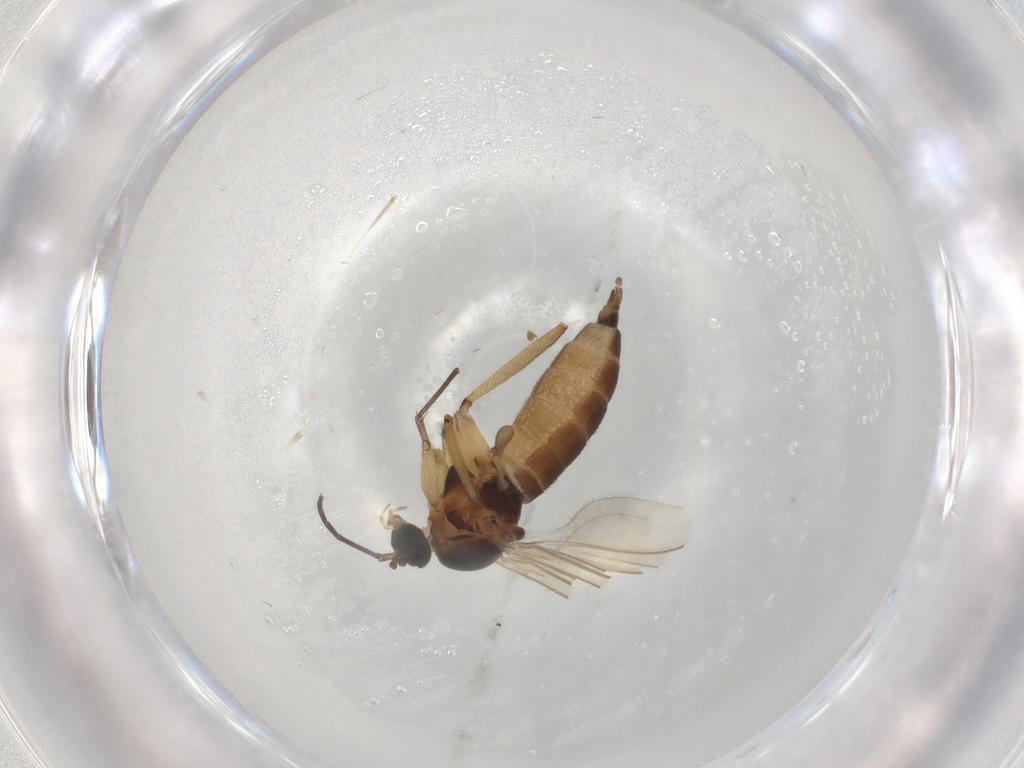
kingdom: Animalia
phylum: Arthropoda
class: Insecta
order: Diptera
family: Sciaridae
